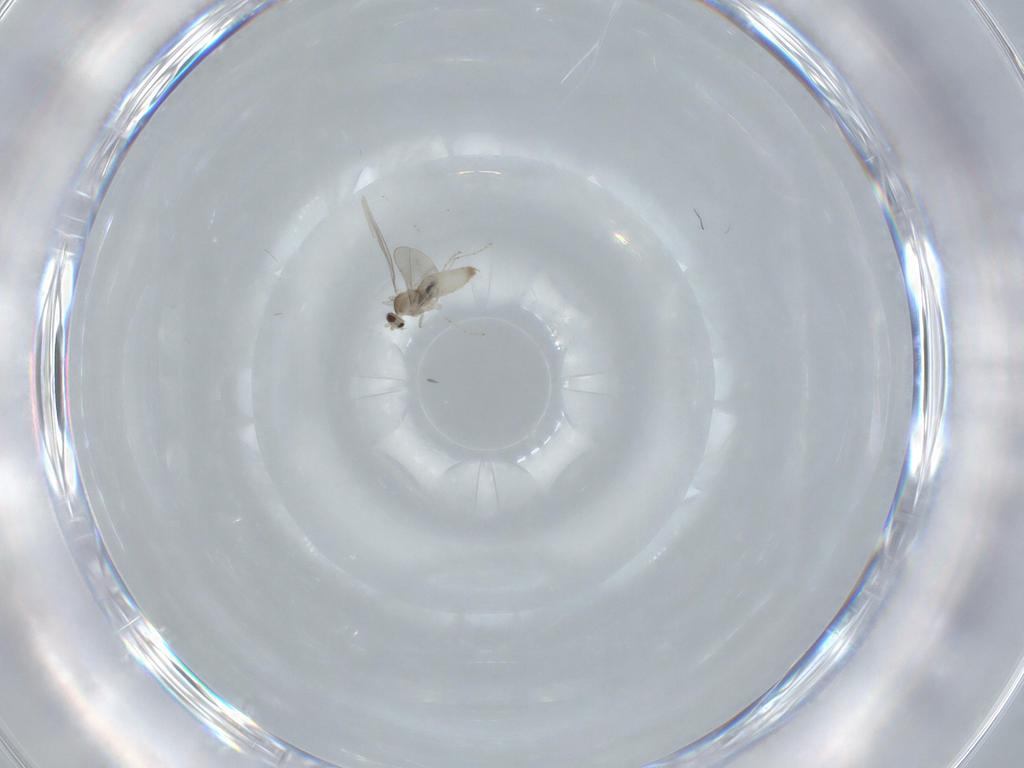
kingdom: Animalia
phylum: Arthropoda
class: Insecta
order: Diptera
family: Cecidomyiidae
